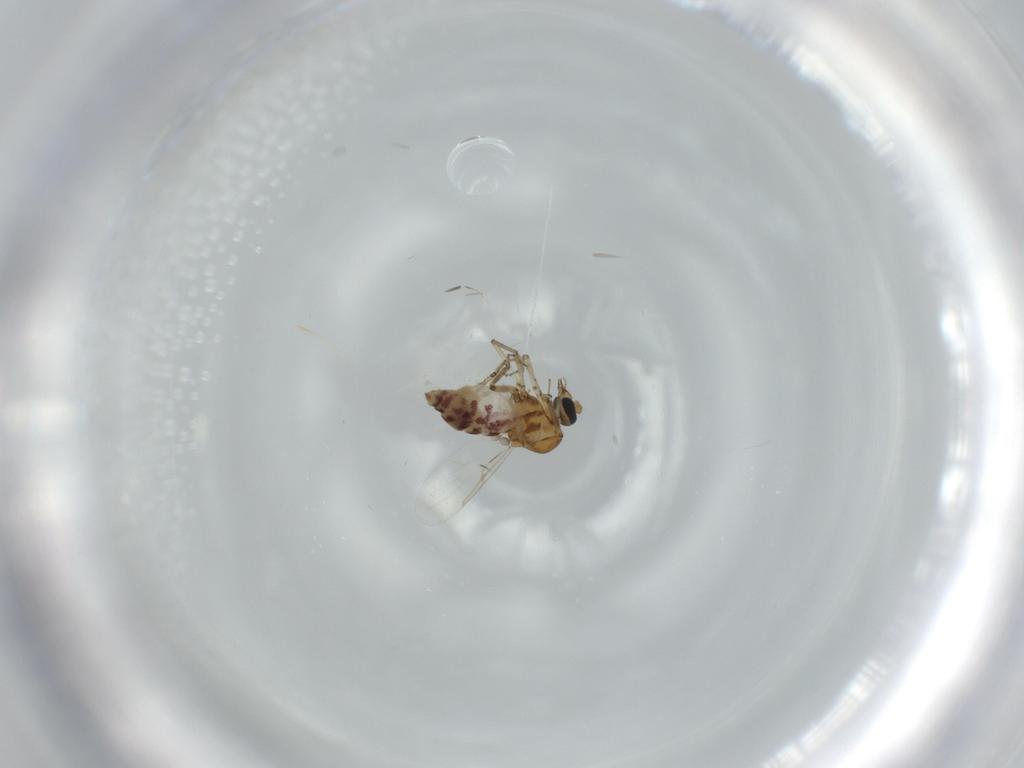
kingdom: Animalia
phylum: Arthropoda
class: Insecta
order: Diptera
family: Ceratopogonidae
